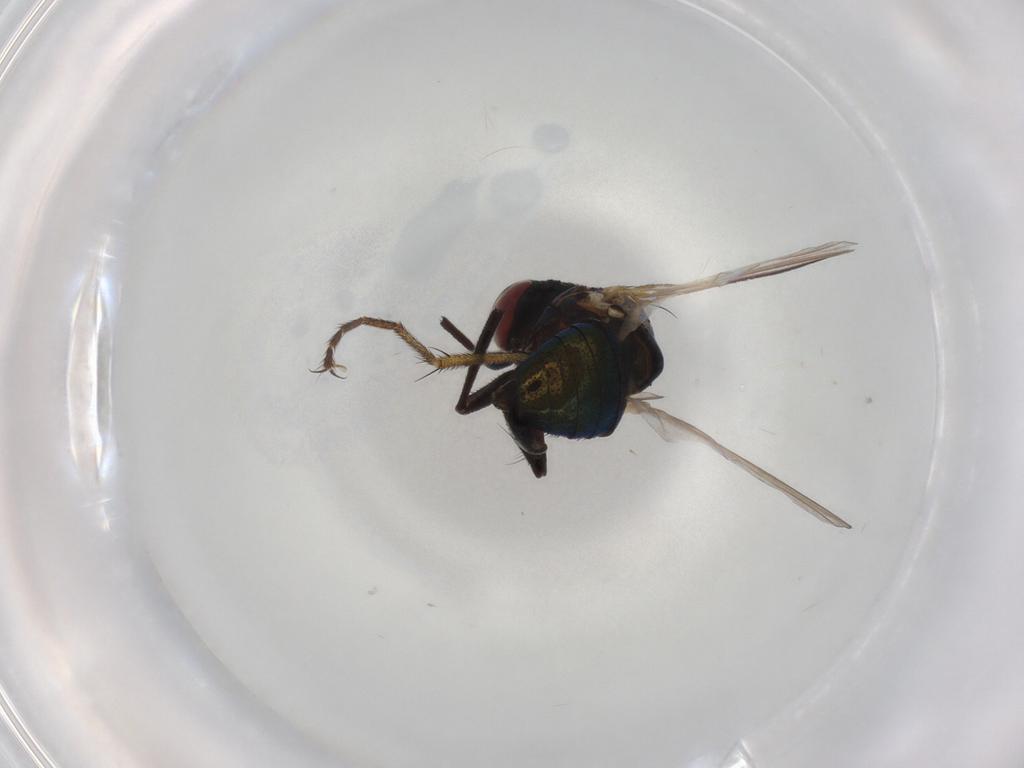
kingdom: Animalia
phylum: Arthropoda
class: Insecta
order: Diptera
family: Agromyzidae
